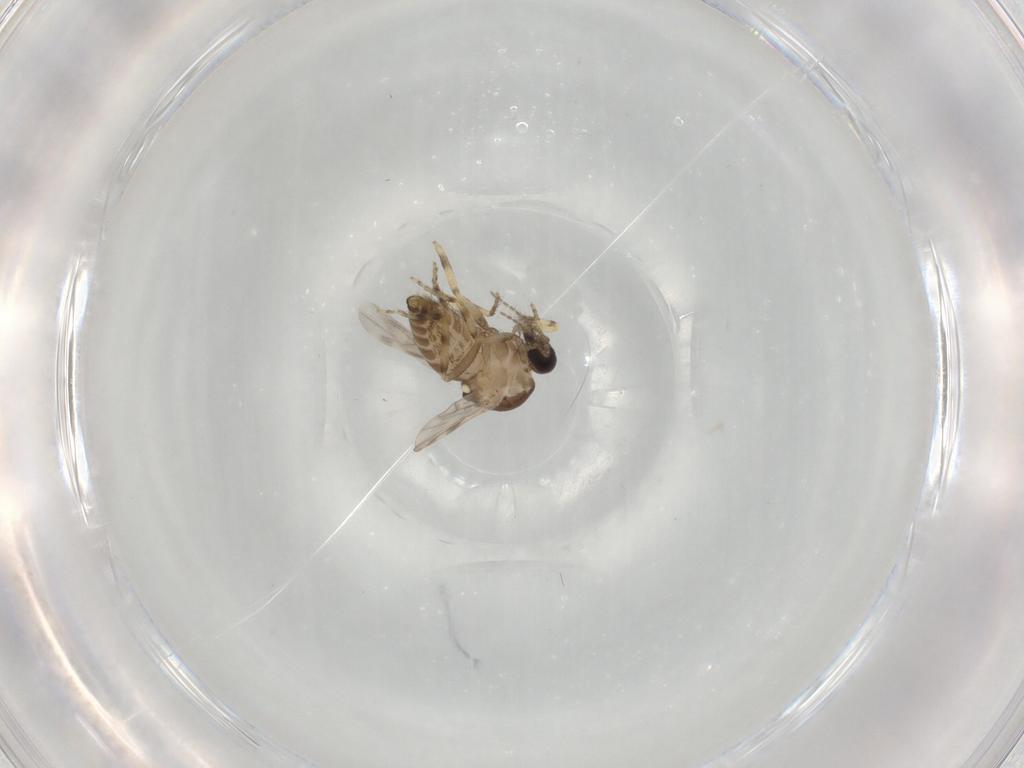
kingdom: Animalia
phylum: Arthropoda
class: Insecta
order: Diptera
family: Ceratopogonidae
